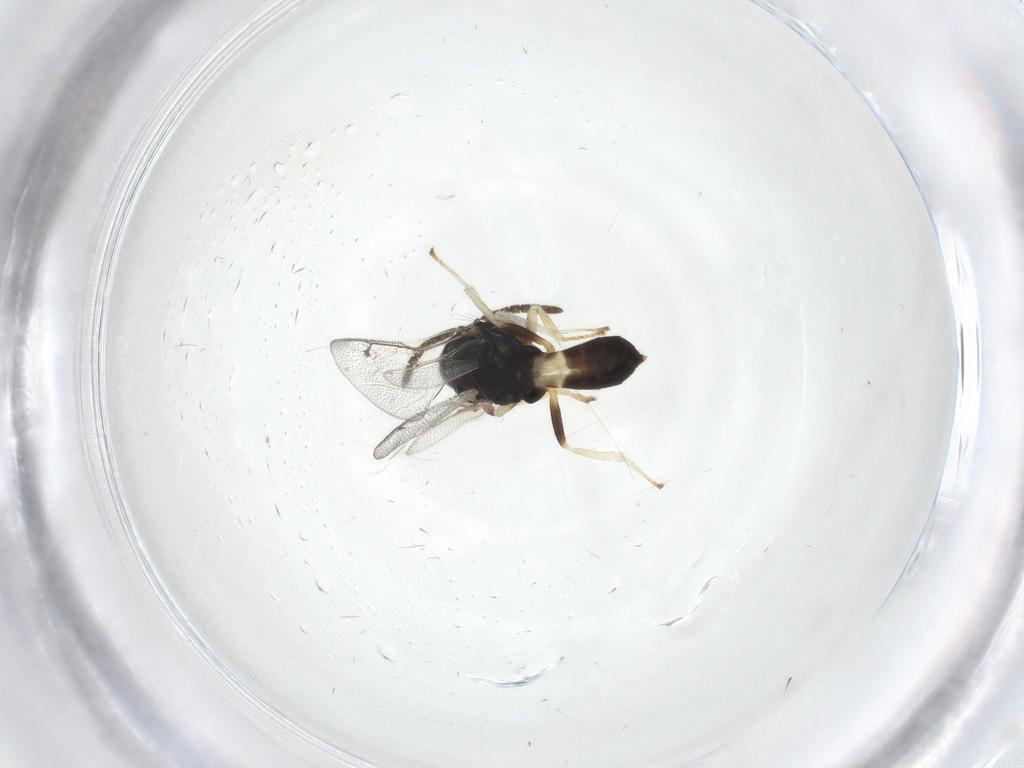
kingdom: Animalia
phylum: Arthropoda
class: Insecta
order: Hymenoptera
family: Pteromalidae
